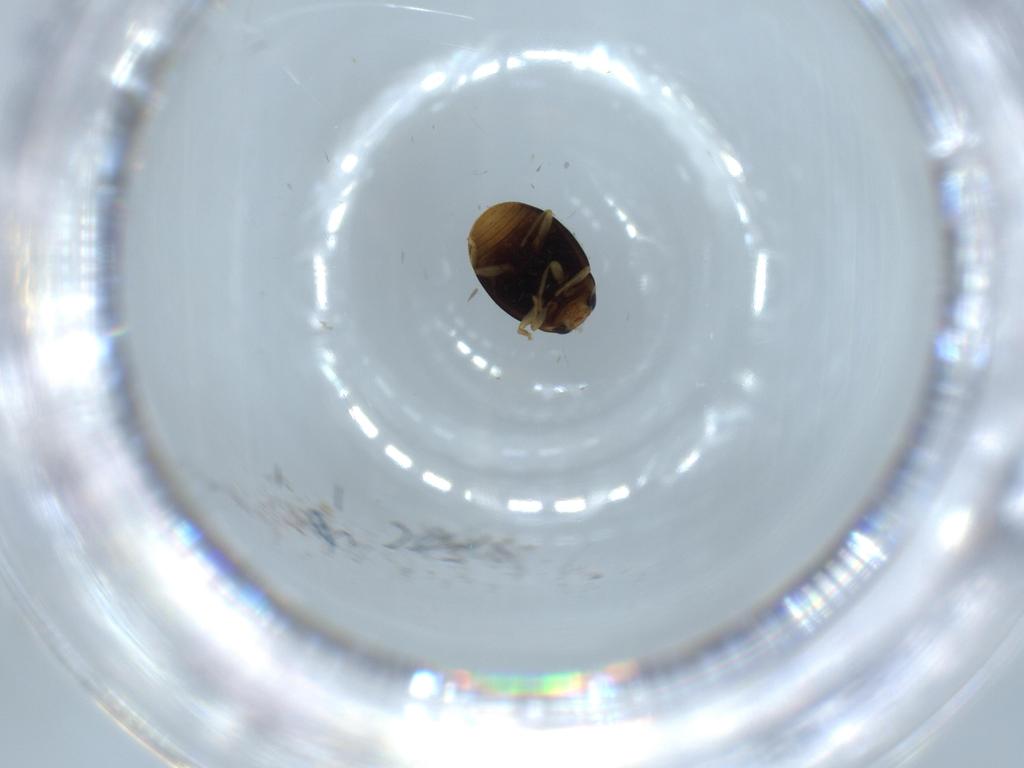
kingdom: Animalia
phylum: Arthropoda
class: Insecta
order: Coleoptera
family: Coccinellidae
